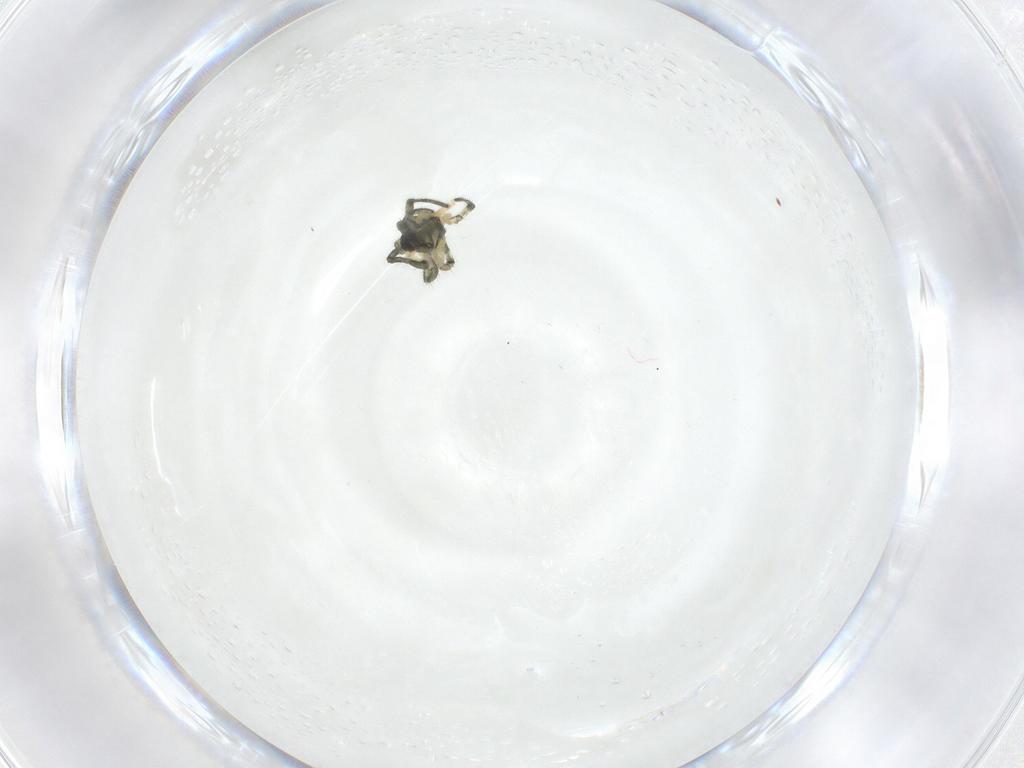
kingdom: Animalia
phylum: Arthropoda
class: Arachnida
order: Araneae
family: Tetragnathidae
